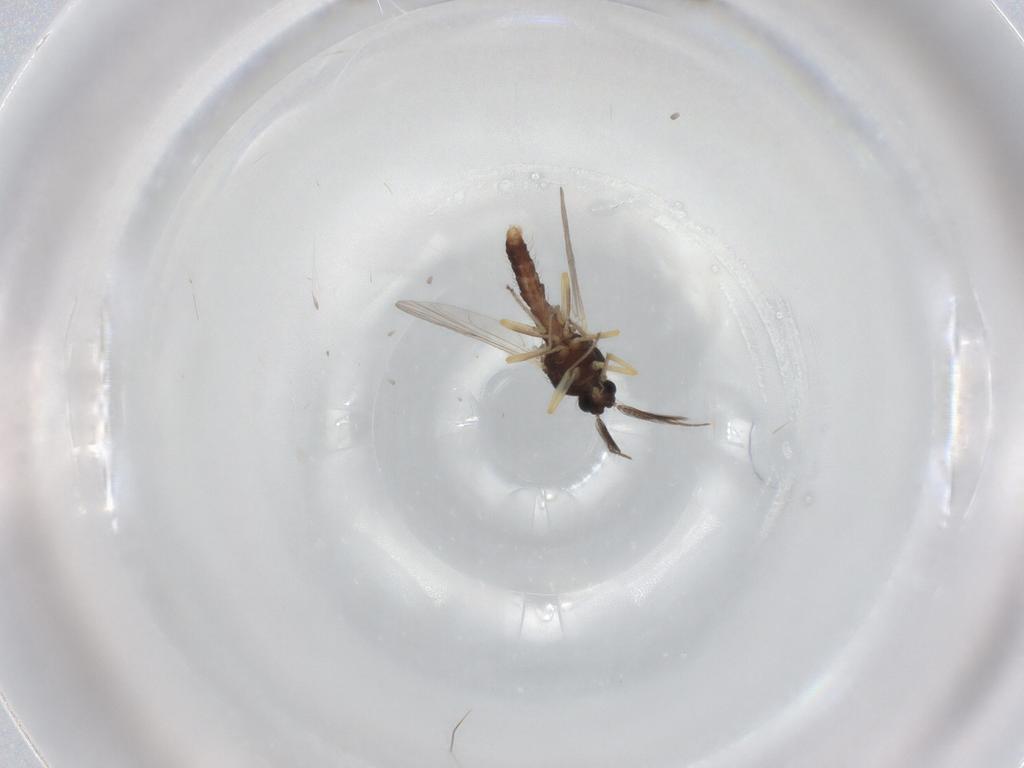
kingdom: Animalia
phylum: Arthropoda
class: Insecta
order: Diptera
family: Ceratopogonidae
